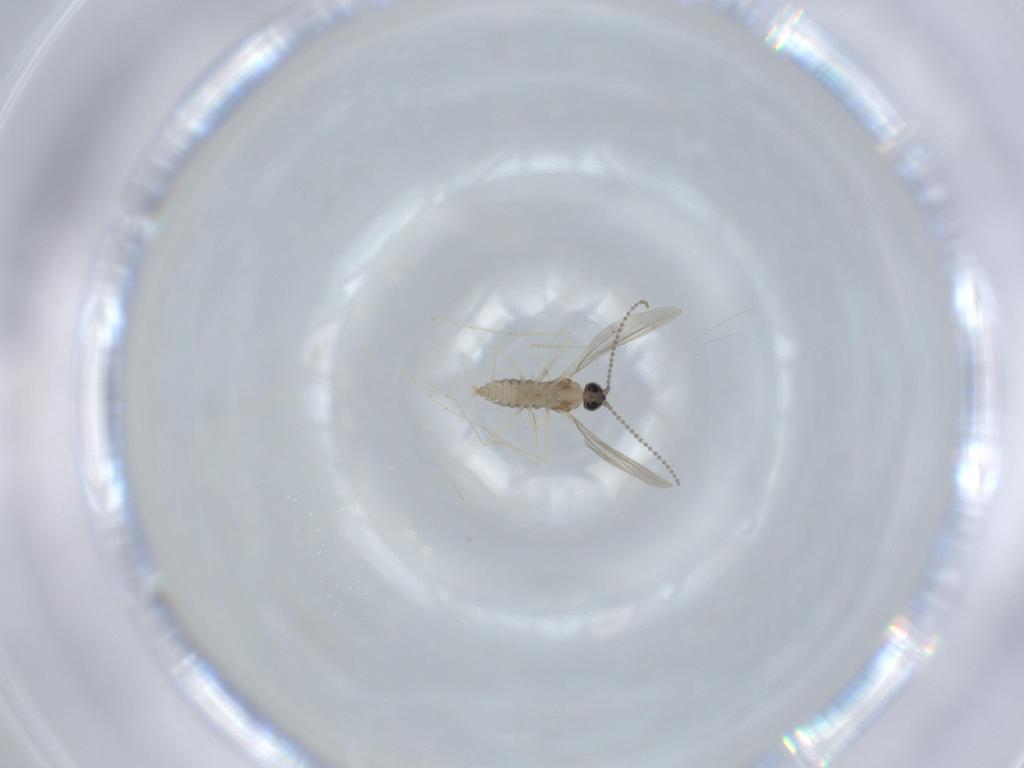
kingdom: Animalia
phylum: Arthropoda
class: Insecta
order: Diptera
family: Cecidomyiidae
